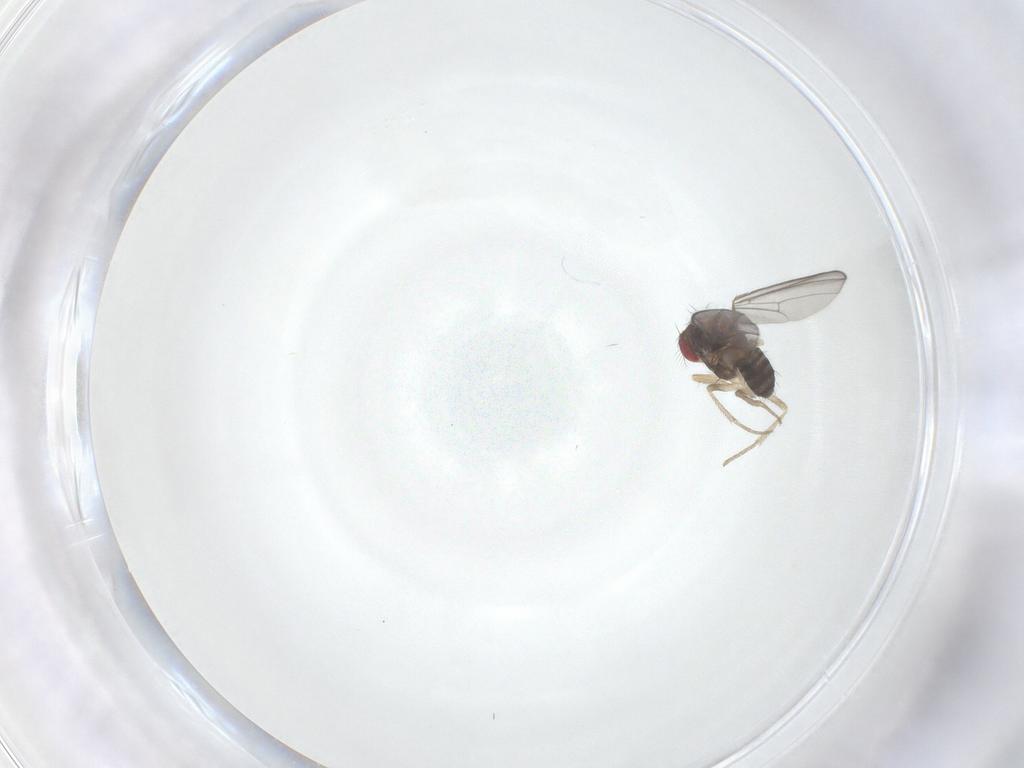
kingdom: Animalia
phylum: Arthropoda
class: Insecta
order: Diptera
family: Drosophilidae
